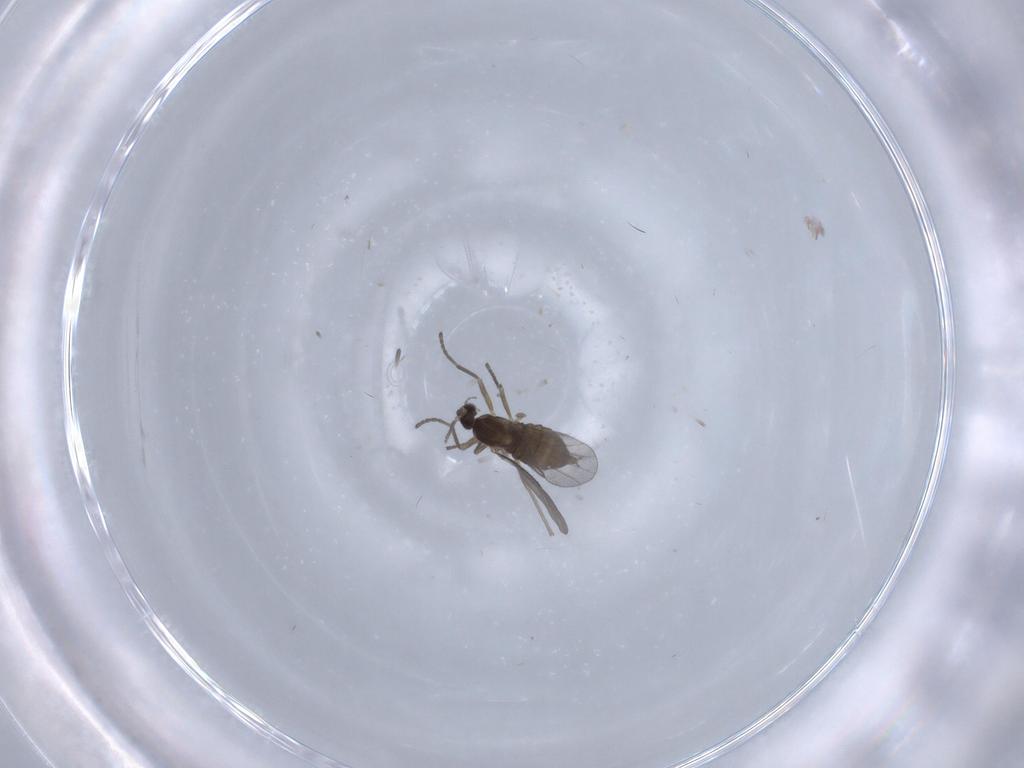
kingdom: Animalia
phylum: Arthropoda
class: Insecta
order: Diptera
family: Cecidomyiidae
